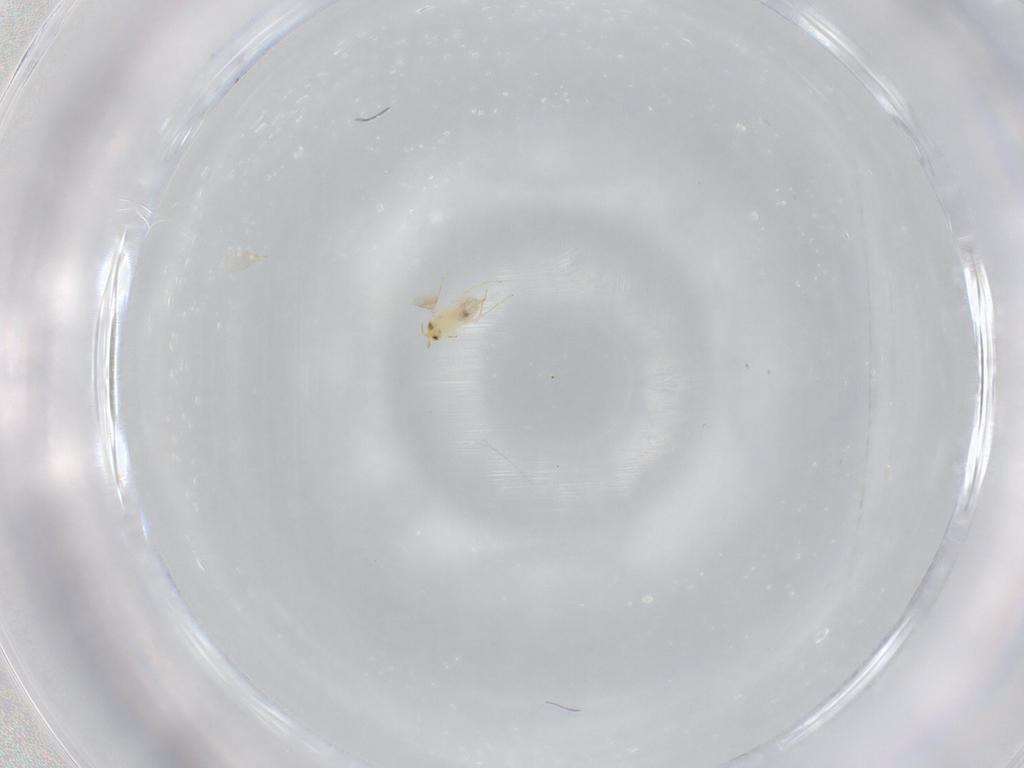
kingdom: Animalia
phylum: Arthropoda
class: Insecta
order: Hymenoptera
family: Aphelinidae
